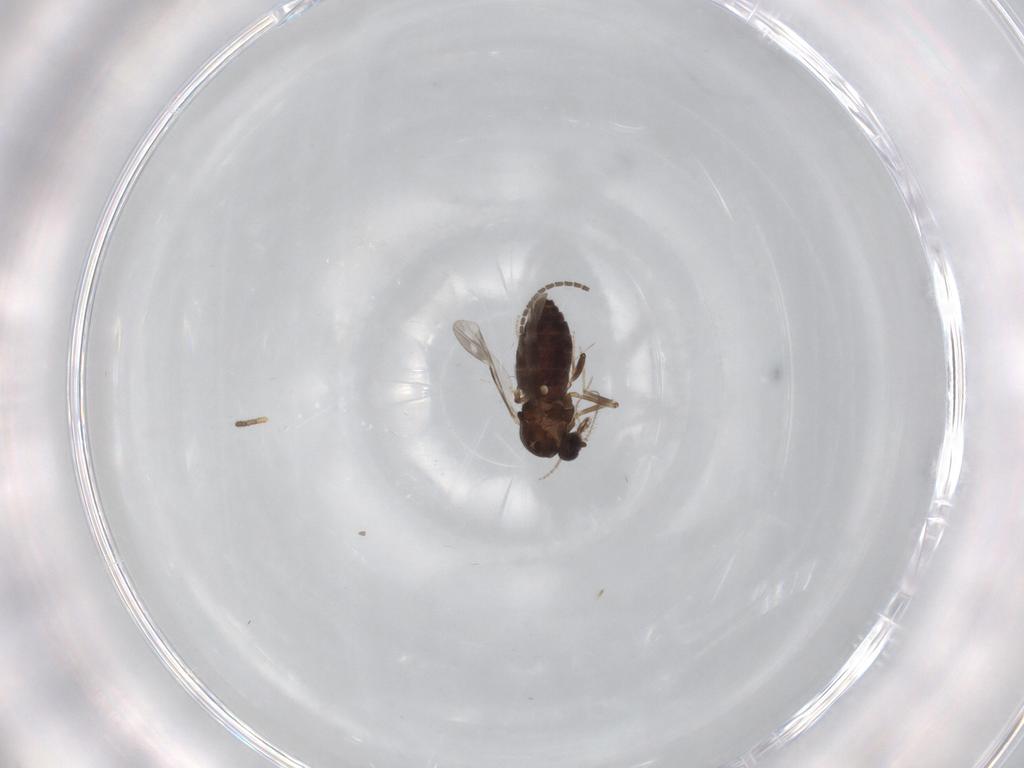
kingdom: Animalia
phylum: Arthropoda
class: Insecta
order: Diptera
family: Ceratopogonidae
